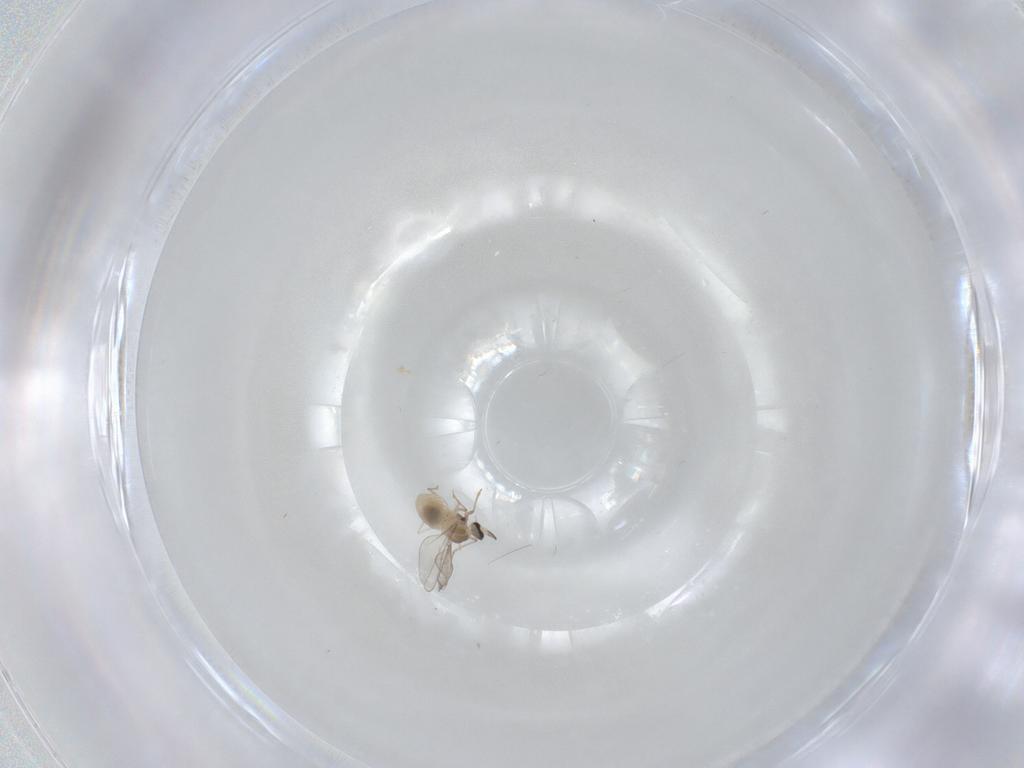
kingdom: Animalia
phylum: Arthropoda
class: Insecta
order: Diptera
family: Cecidomyiidae
